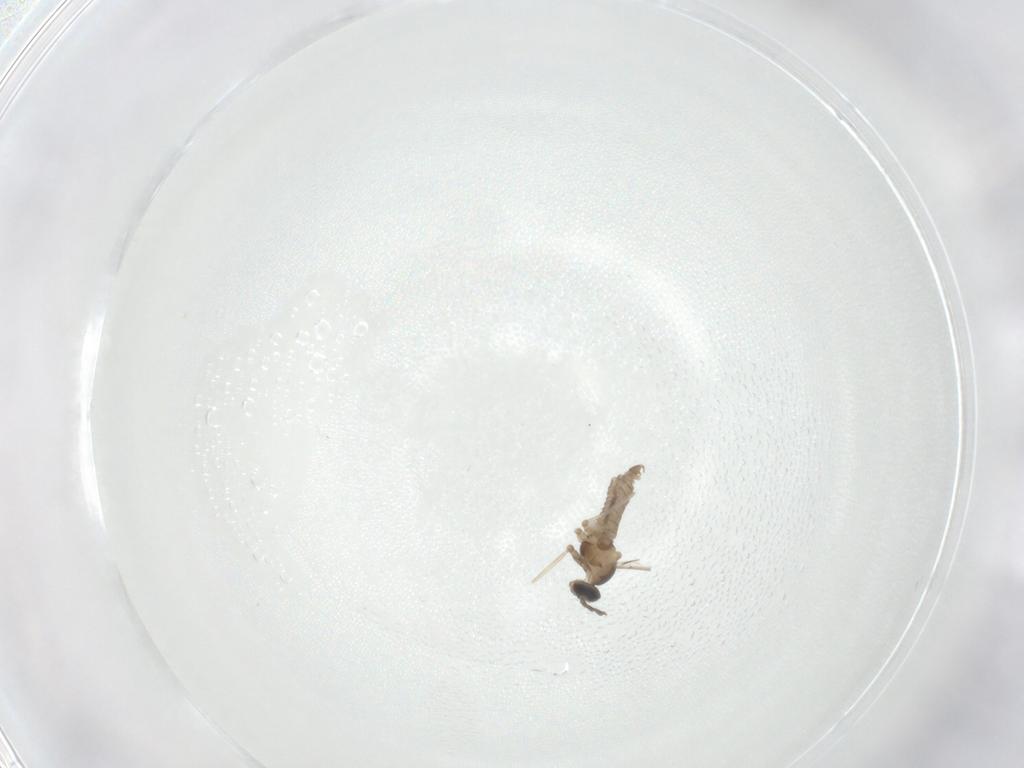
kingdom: Animalia
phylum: Arthropoda
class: Insecta
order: Diptera
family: Cecidomyiidae
